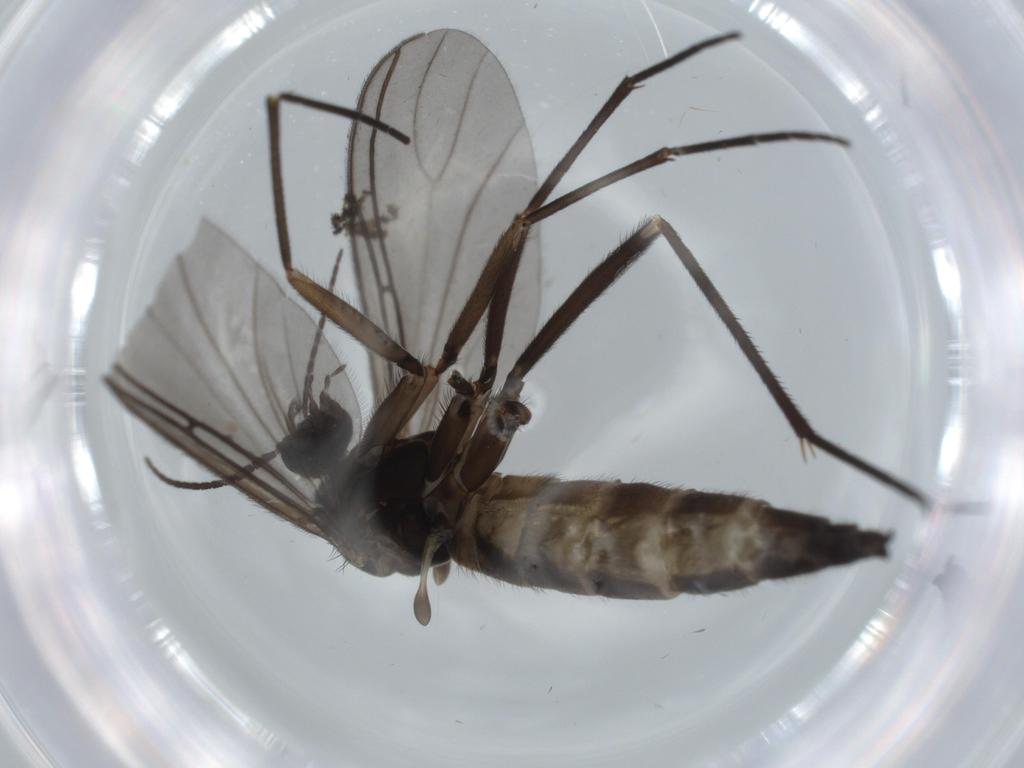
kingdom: Animalia
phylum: Arthropoda
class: Insecta
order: Diptera
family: Sciaridae
